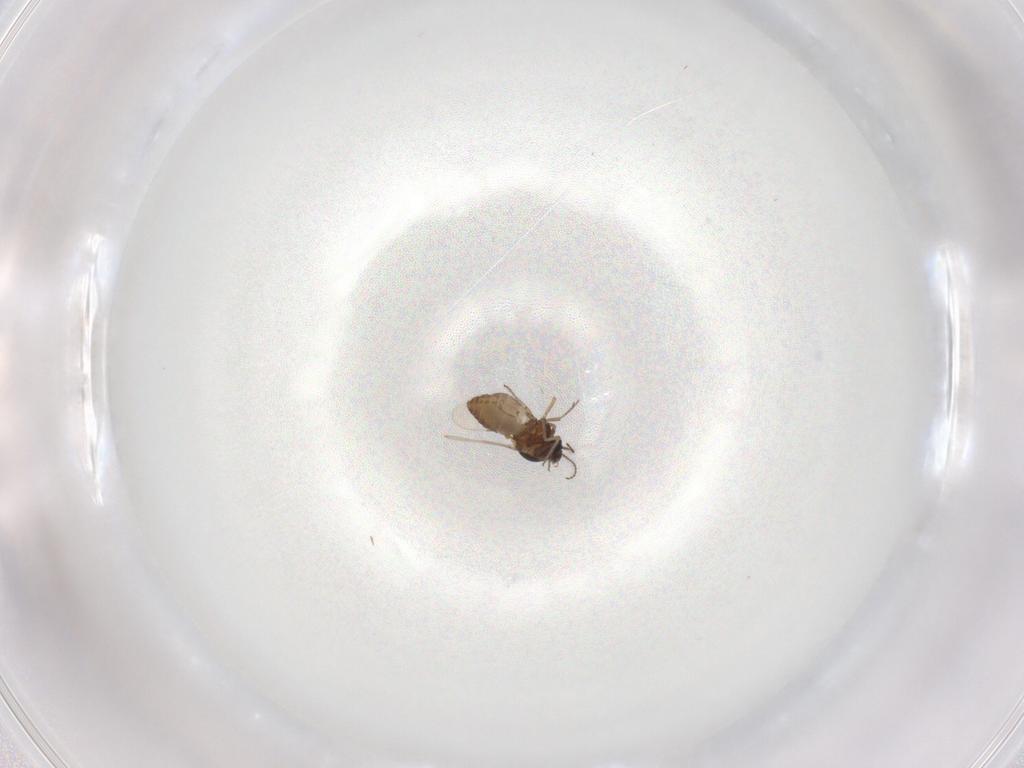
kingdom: Animalia
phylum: Arthropoda
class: Insecta
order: Diptera
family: Ceratopogonidae
